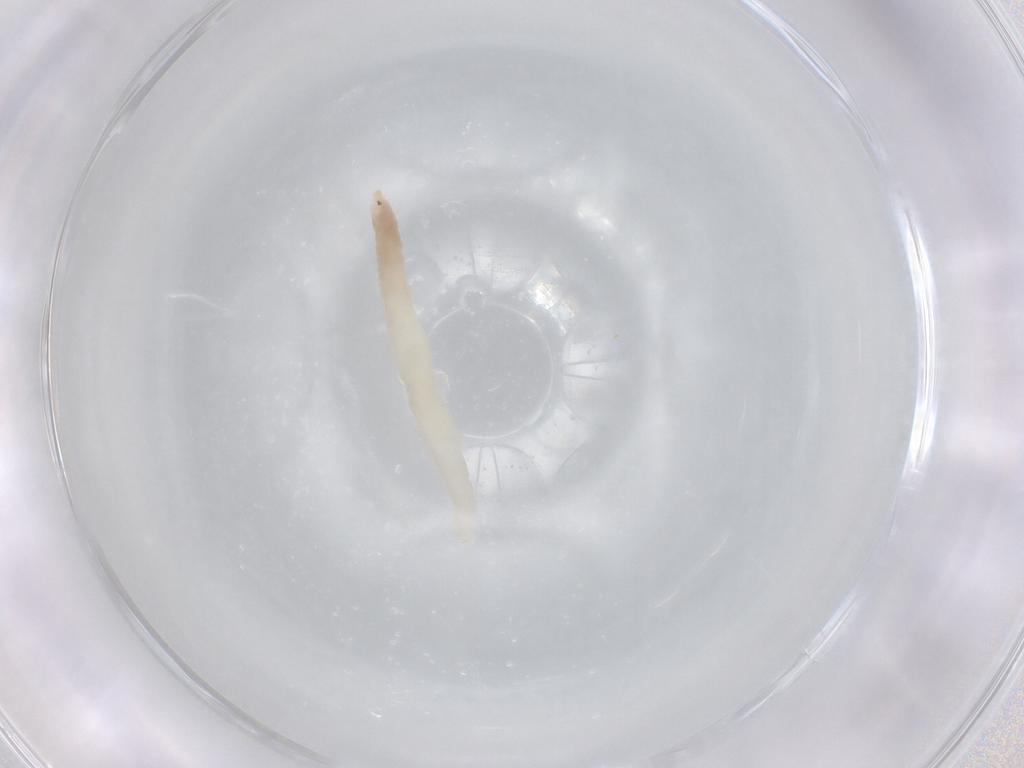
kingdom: Animalia
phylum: Arthropoda
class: Insecta
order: Diptera
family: Cecidomyiidae
